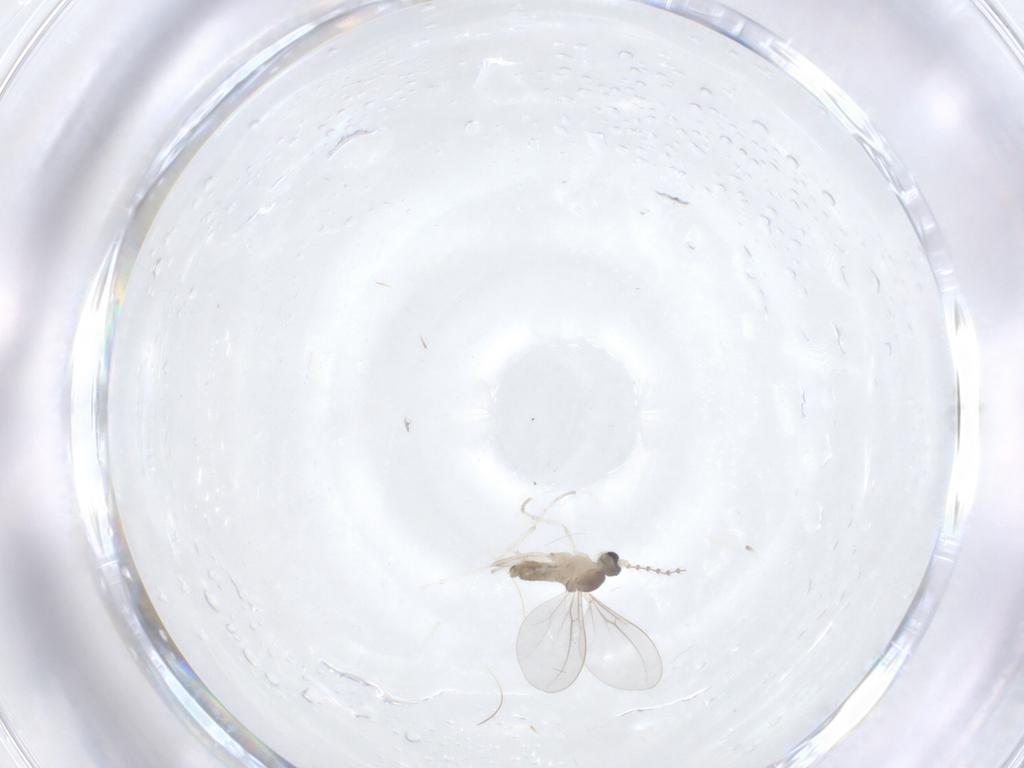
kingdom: Animalia
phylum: Arthropoda
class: Insecta
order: Diptera
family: Cecidomyiidae
